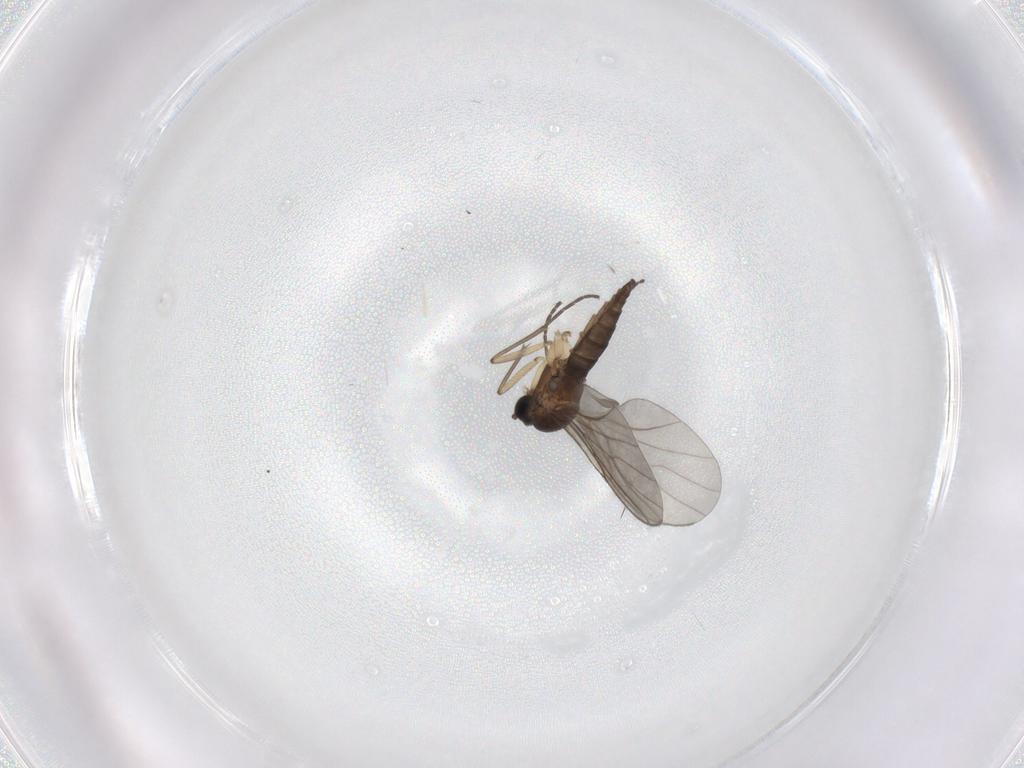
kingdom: Animalia
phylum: Arthropoda
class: Insecta
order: Diptera
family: Sciaridae
